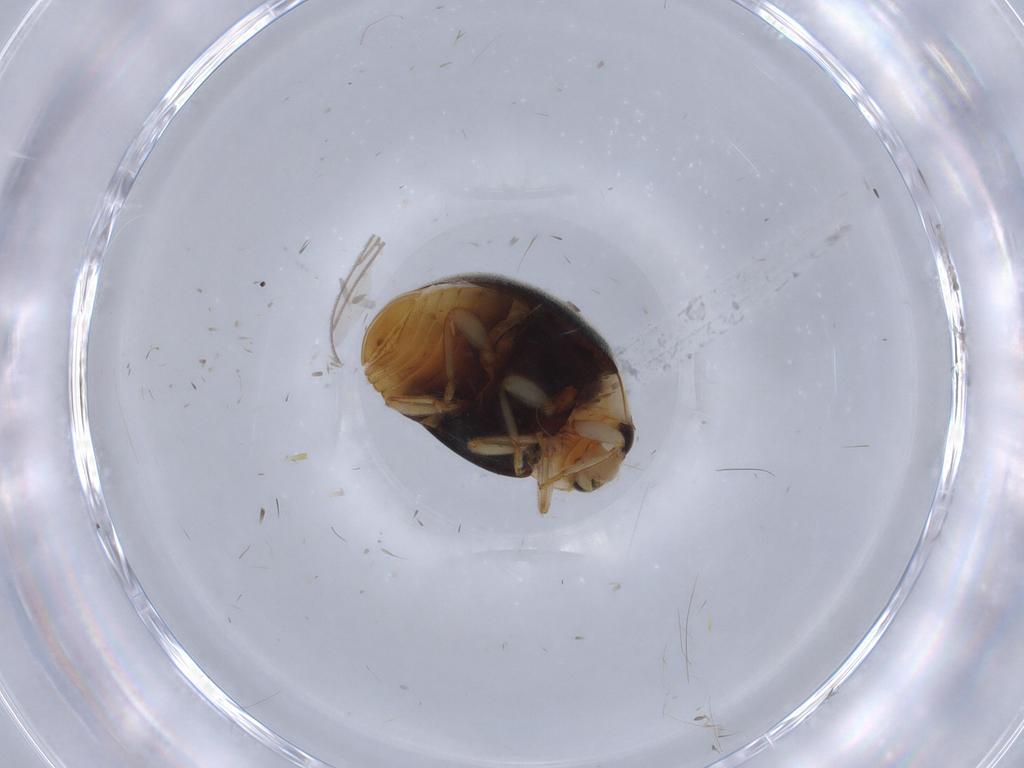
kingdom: Animalia
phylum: Arthropoda
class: Insecta
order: Coleoptera
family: Coccinellidae
